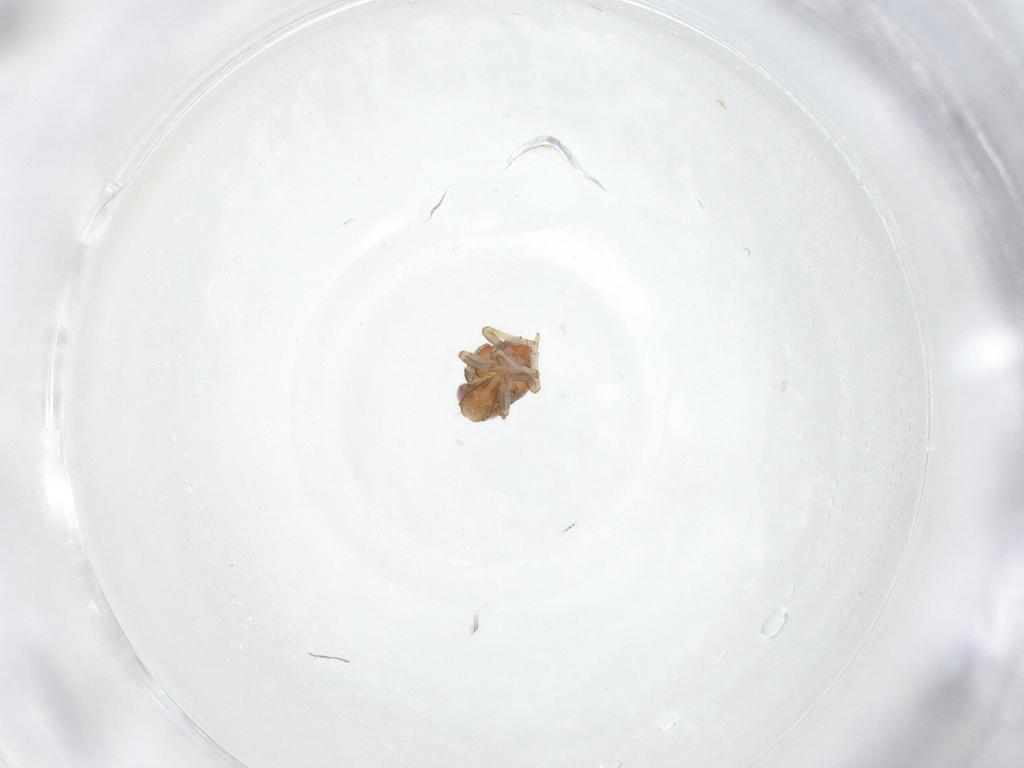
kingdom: Animalia
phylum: Arthropoda
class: Insecta
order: Hemiptera
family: Issidae
